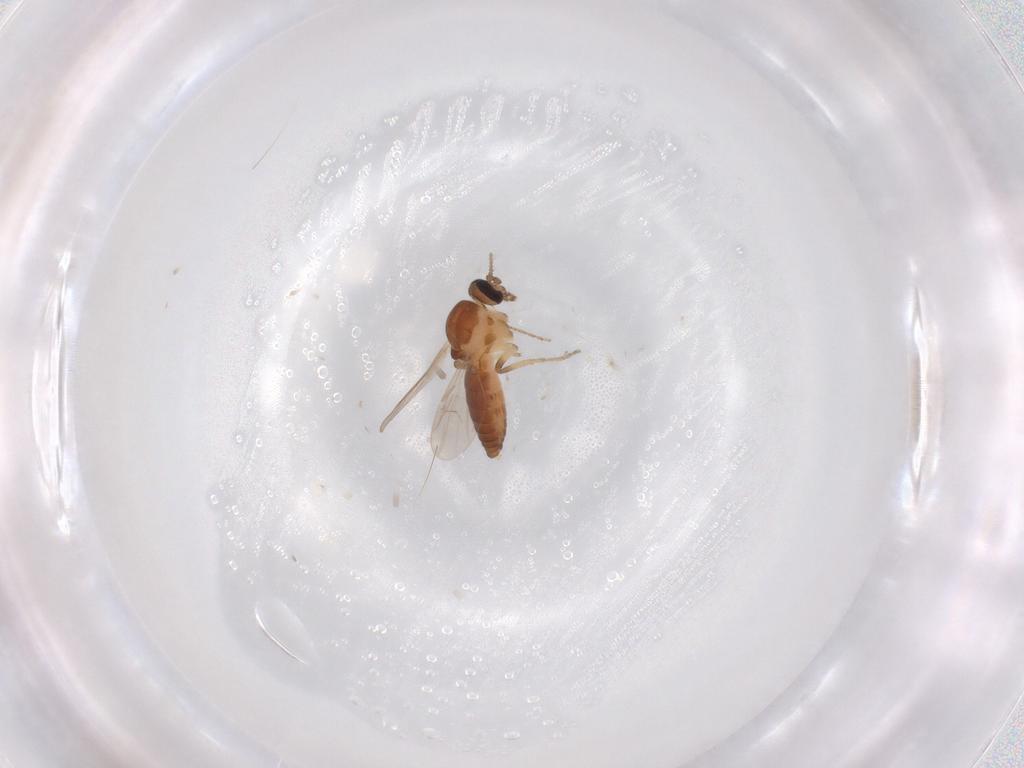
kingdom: Animalia
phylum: Arthropoda
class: Insecta
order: Diptera
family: Ceratopogonidae
